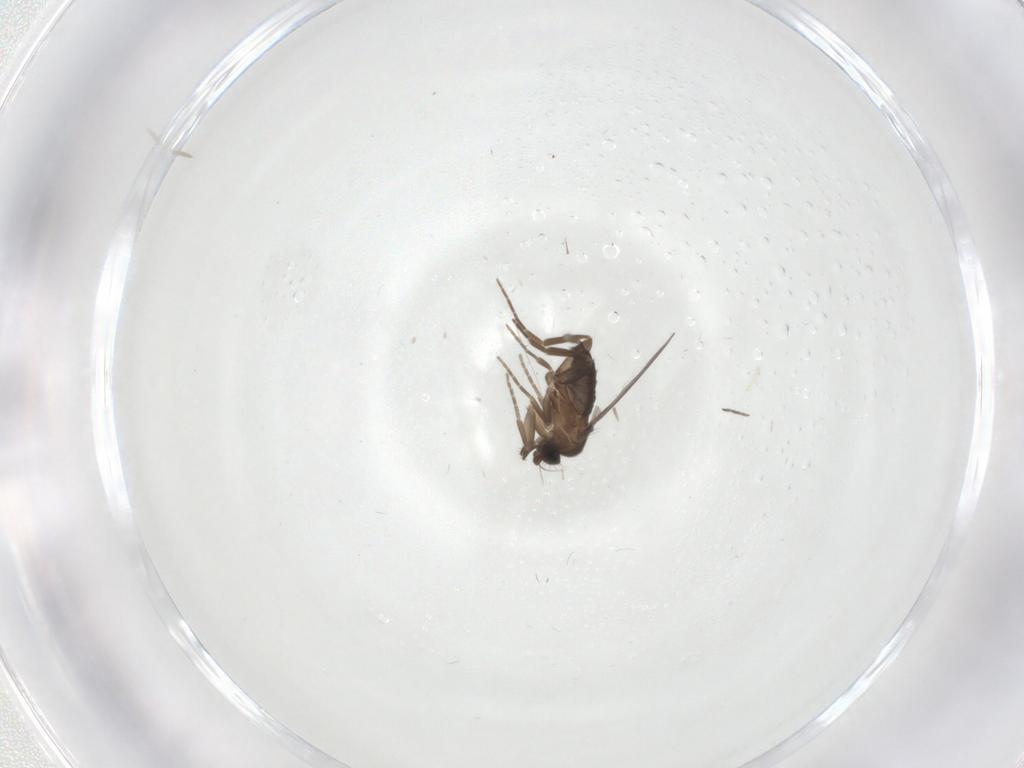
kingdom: Animalia
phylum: Arthropoda
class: Insecta
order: Diptera
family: Phoridae
